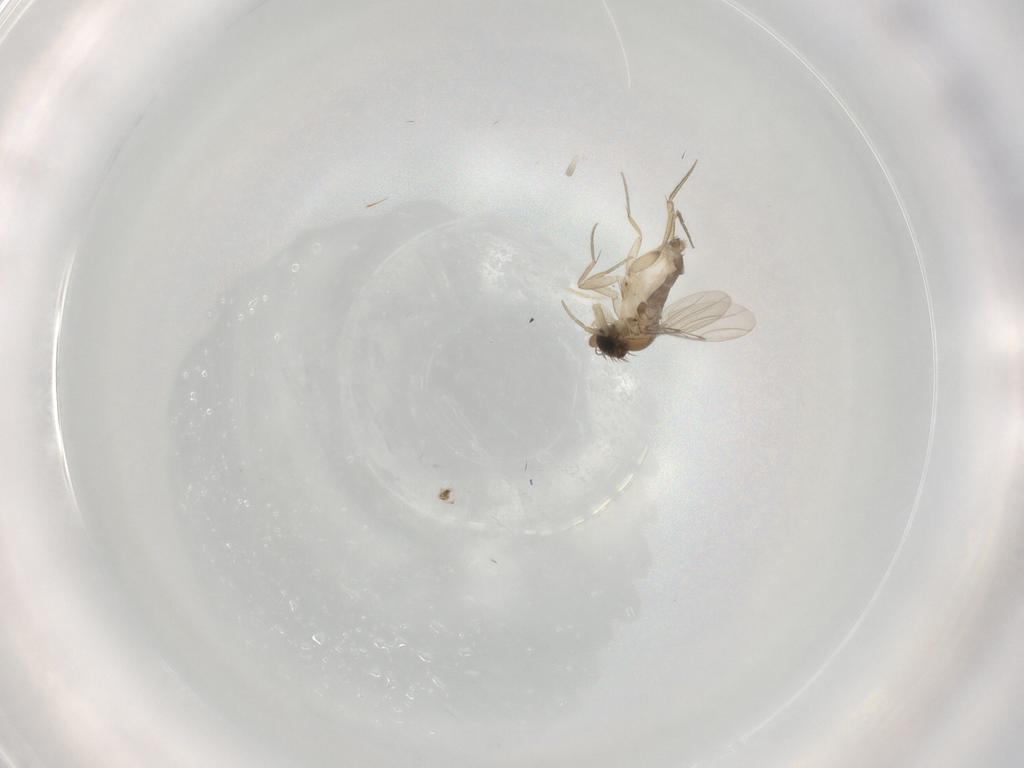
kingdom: Animalia
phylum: Arthropoda
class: Insecta
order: Diptera
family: Phoridae
